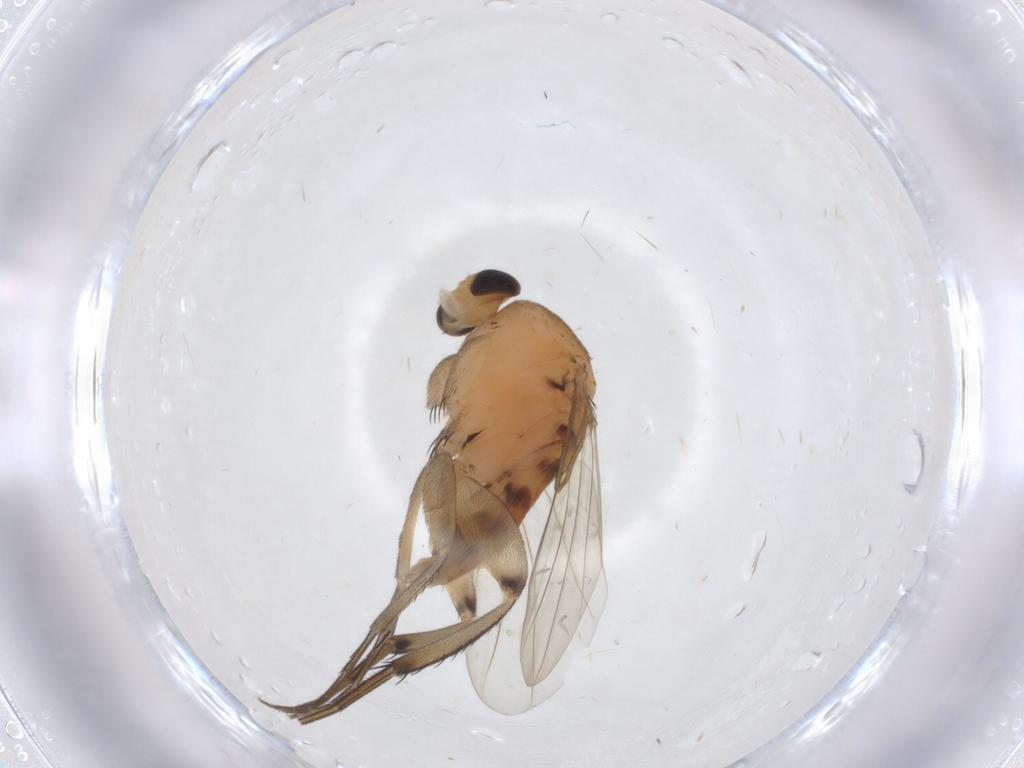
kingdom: Animalia
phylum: Arthropoda
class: Insecta
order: Diptera
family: Phoridae
